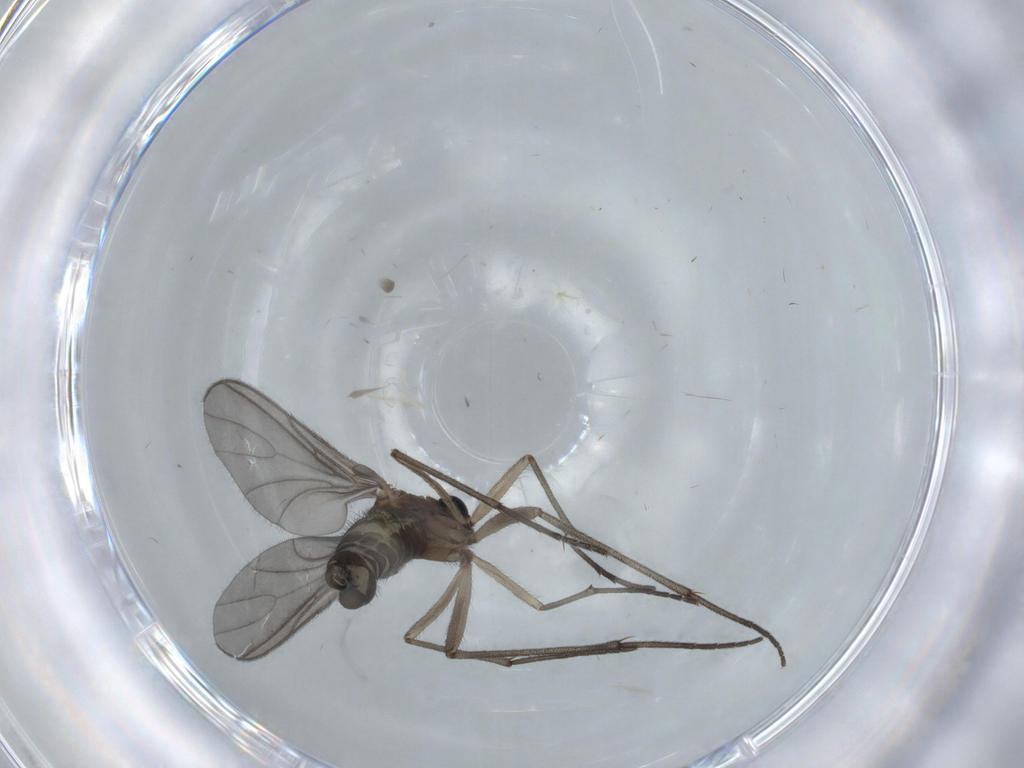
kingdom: Animalia
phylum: Arthropoda
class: Insecta
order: Diptera
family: Sciaridae
